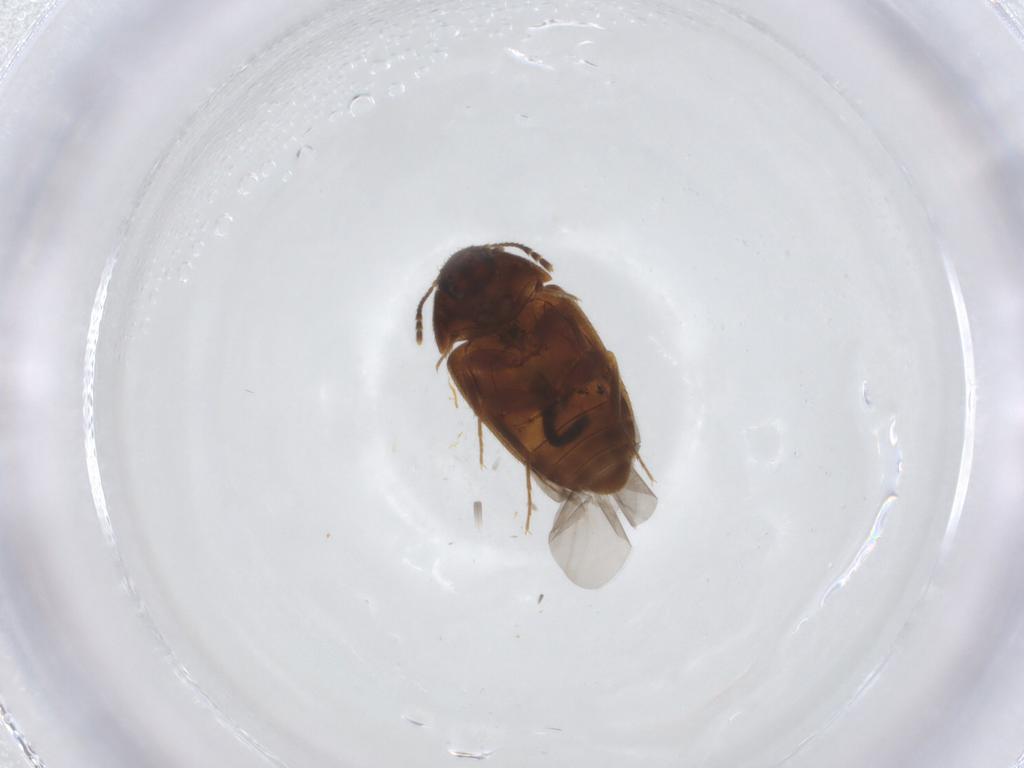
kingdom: Animalia
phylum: Arthropoda
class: Insecta
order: Coleoptera
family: Mycetophagidae
